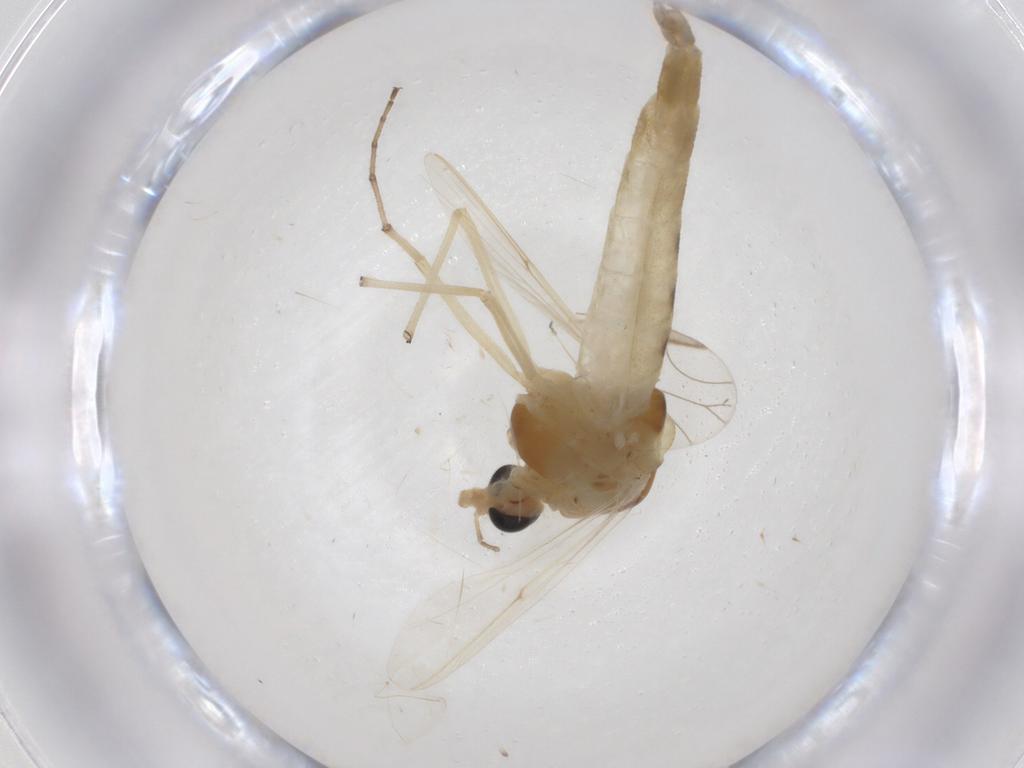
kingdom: Animalia
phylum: Arthropoda
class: Insecta
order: Diptera
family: Chironomidae
